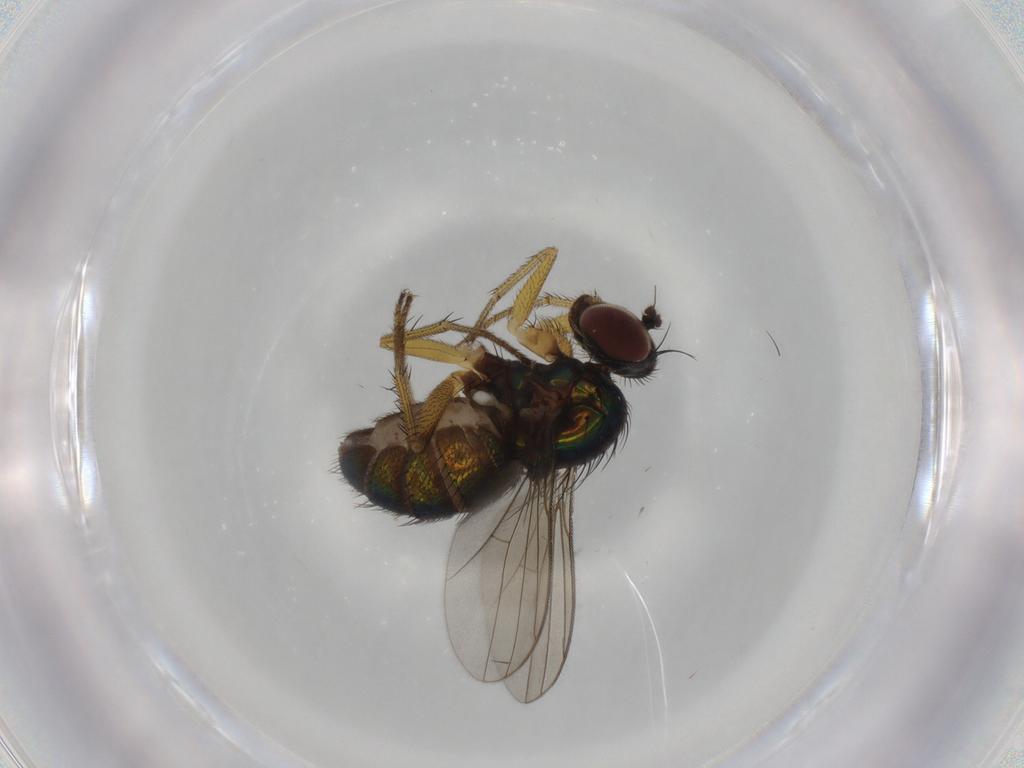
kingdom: Animalia
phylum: Arthropoda
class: Insecta
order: Diptera
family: Dolichopodidae
